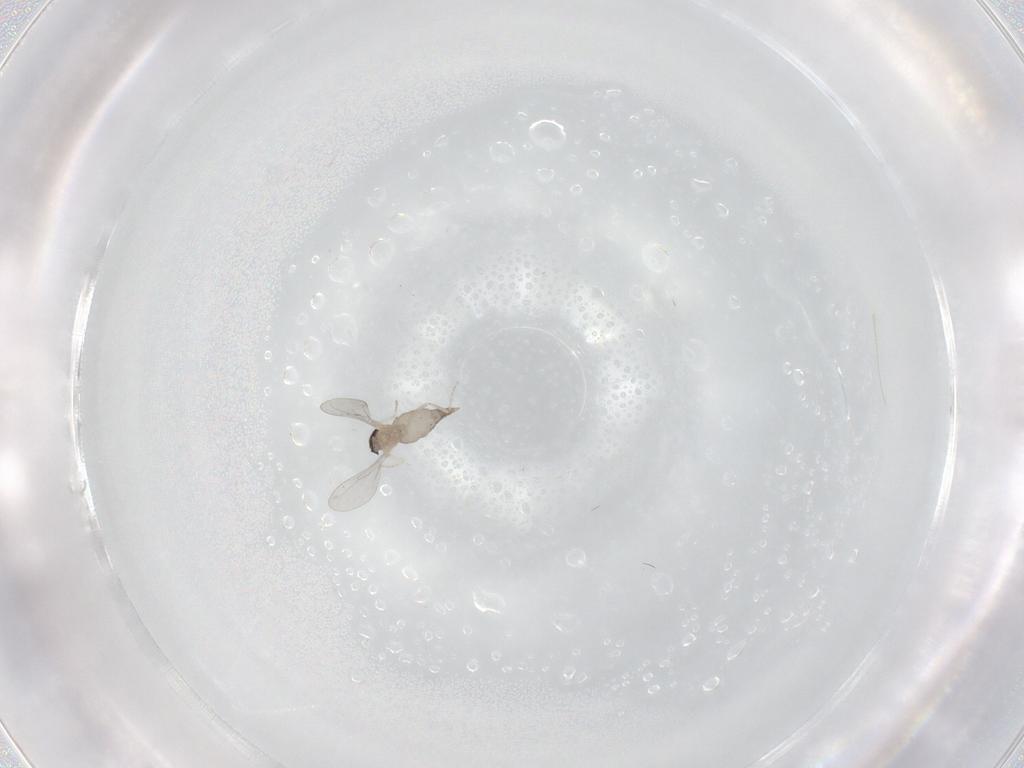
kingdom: Animalia
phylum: Arthropoda
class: Insecta
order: Diptera
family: Cecidomyiidae
